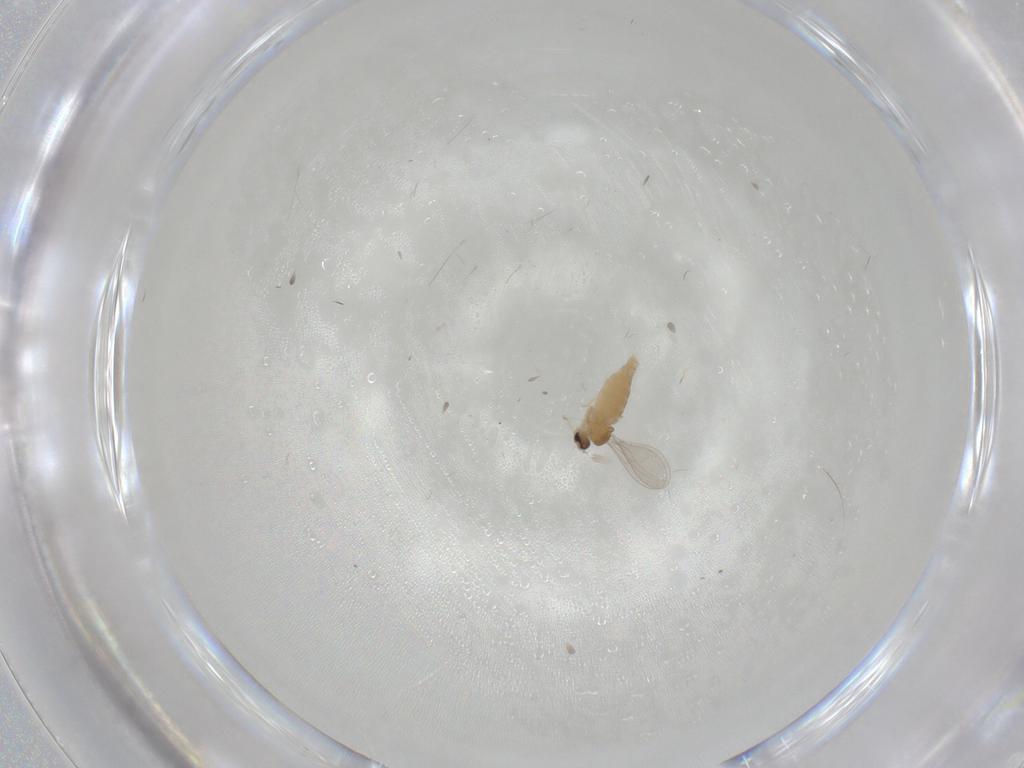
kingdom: Animalia
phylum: Arthropoda
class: Insecta
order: Diptera
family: Cecidomyiidae
